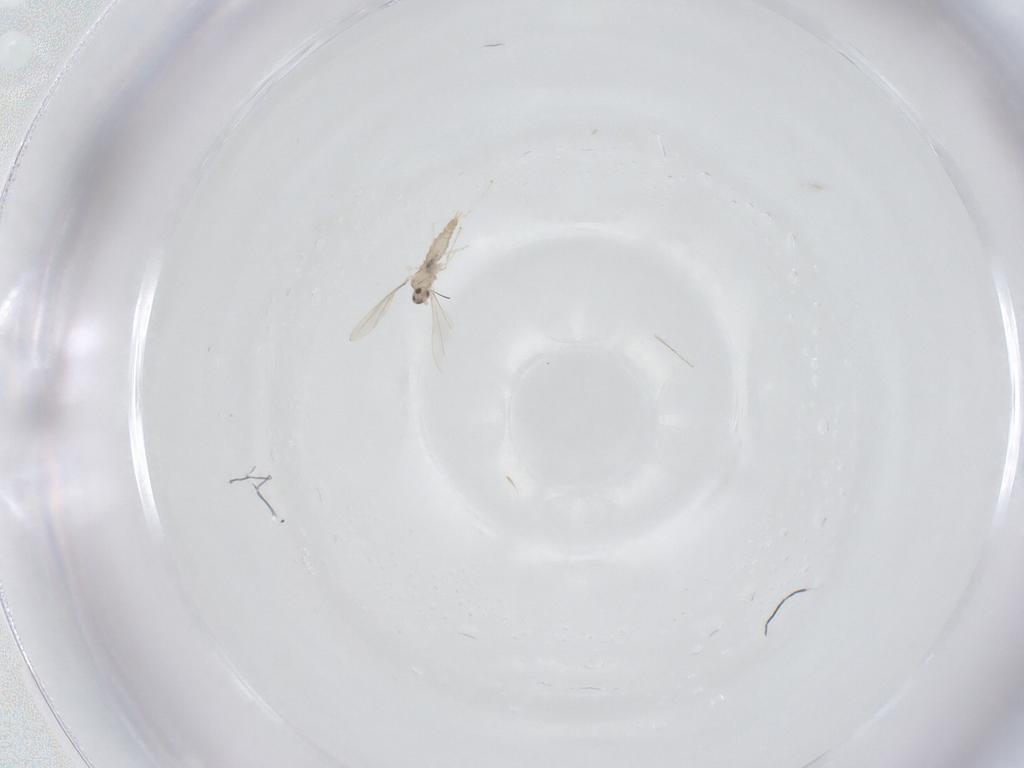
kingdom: Animalia
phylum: Arthropoda
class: Insecta
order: Diptera
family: Cecidomyiidae
